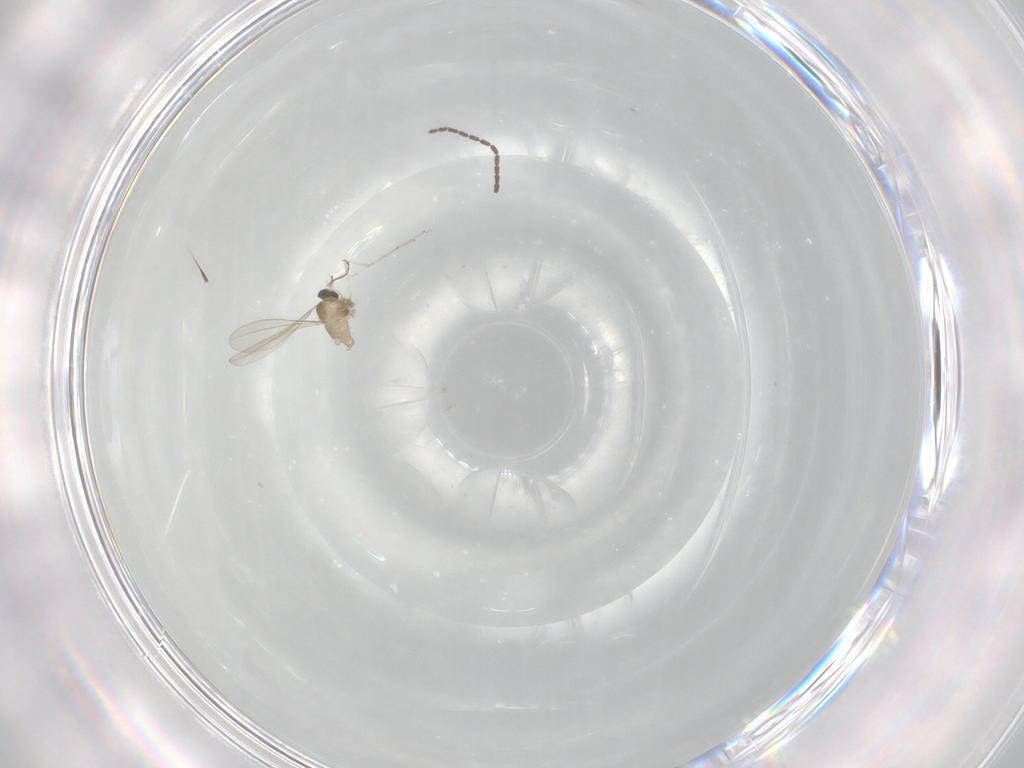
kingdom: Animalia
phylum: Arthropoda
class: Insecta
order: Diptera
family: Cecidomyiidae
